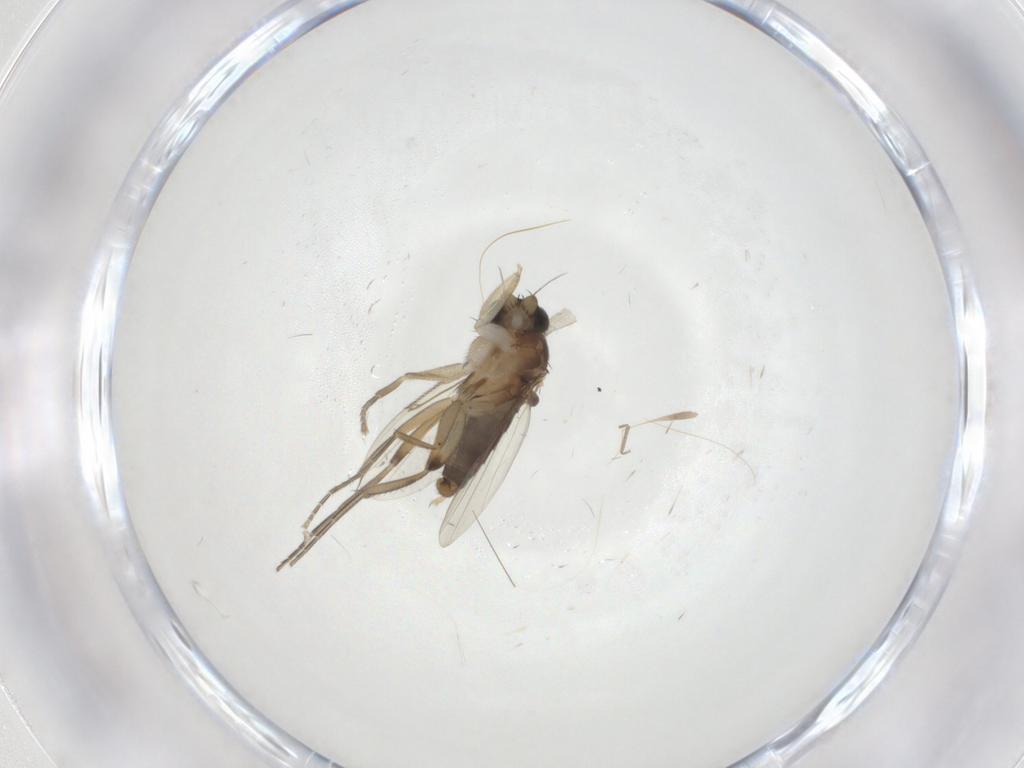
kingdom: Animalia
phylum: Arthropoda
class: Insecta
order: Diptera
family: Phoridae
